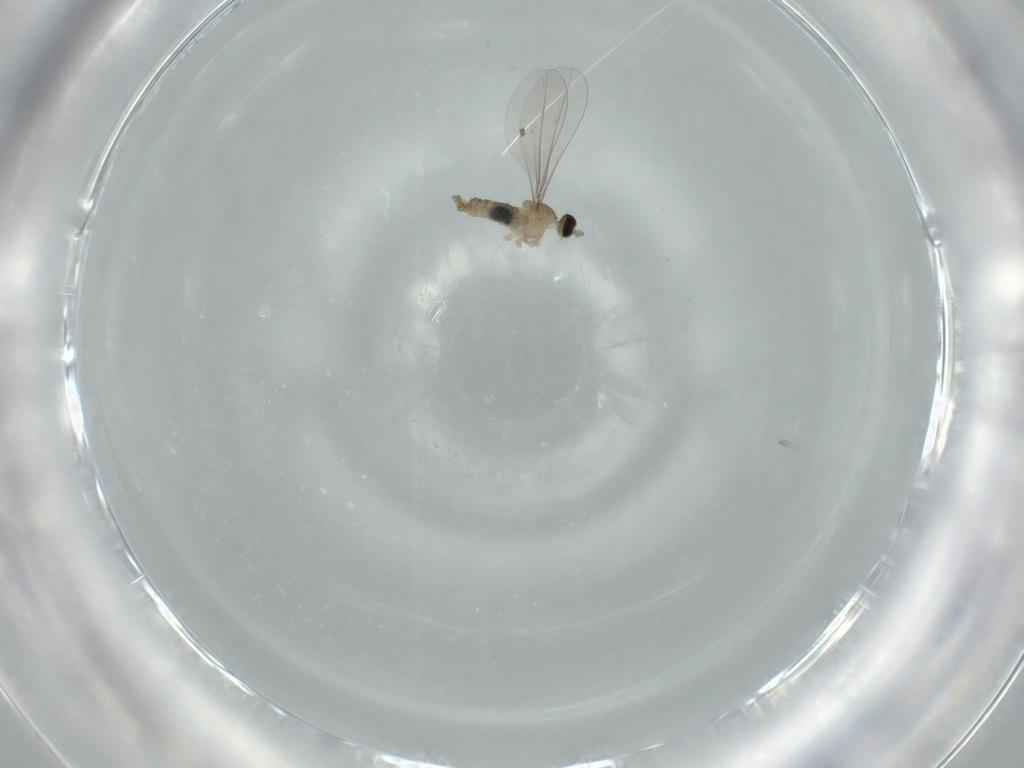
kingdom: Animalia
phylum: Arthropoda
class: Insecta
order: Diptera
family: Cecidomyiidae
